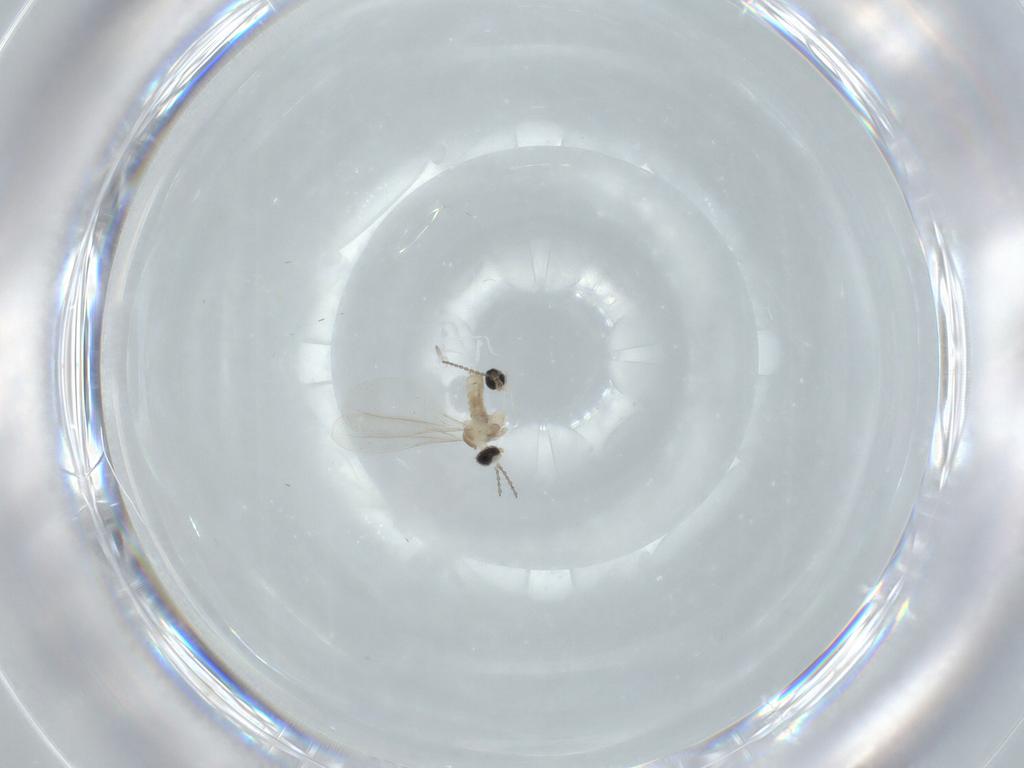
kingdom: Animalia
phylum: Arthropoda
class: Insecta
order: Diptera
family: Cecidomyiidae
